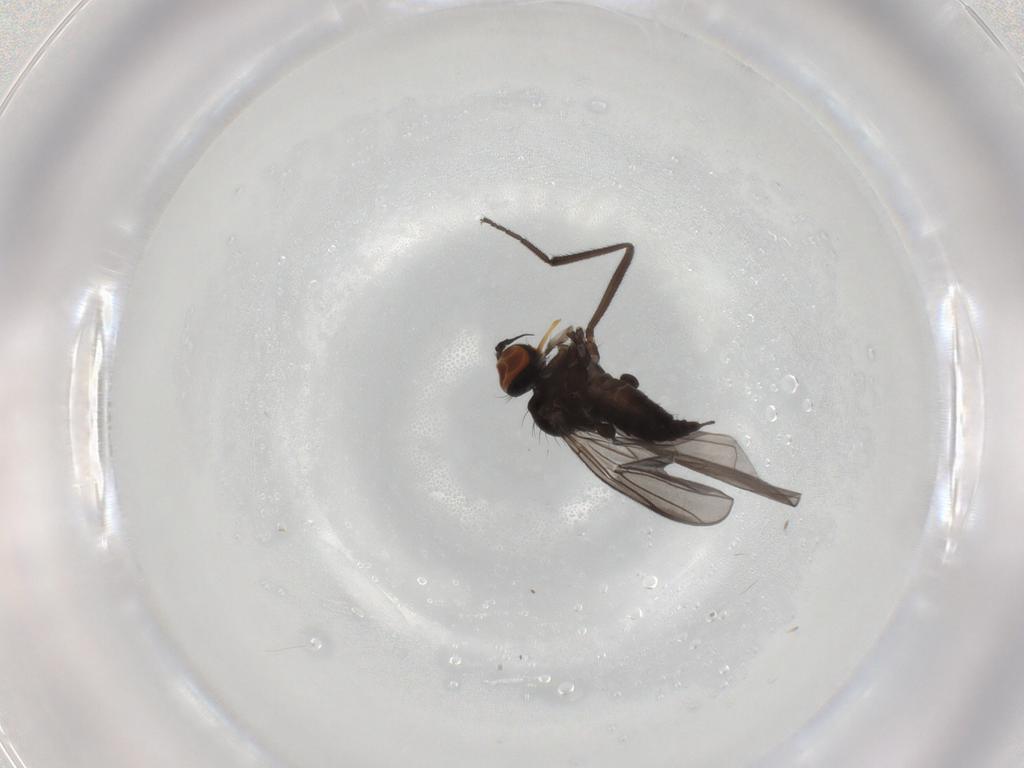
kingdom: Animalia
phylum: Arthropoda
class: Insecta
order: Diptera
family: Empididae
